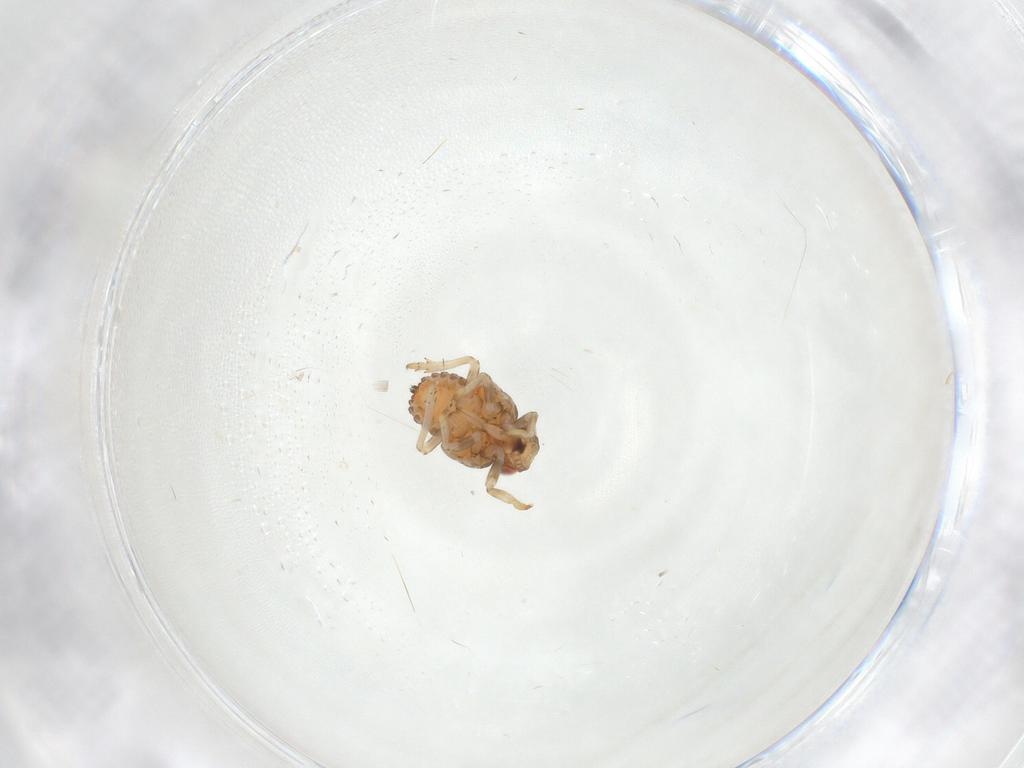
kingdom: Animalia
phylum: Arthropoda
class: Insecta
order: Hemiptera
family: Issidae
